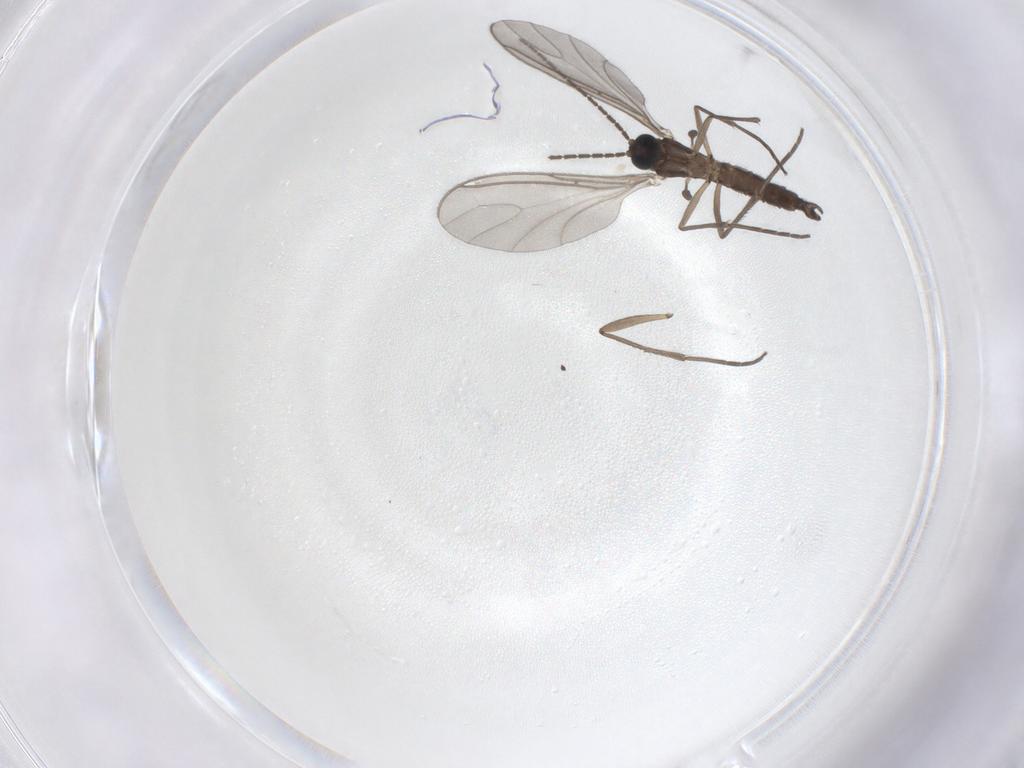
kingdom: Animalia
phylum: Arthropoda
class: Insecta
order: Diptera
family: Sciaridae
